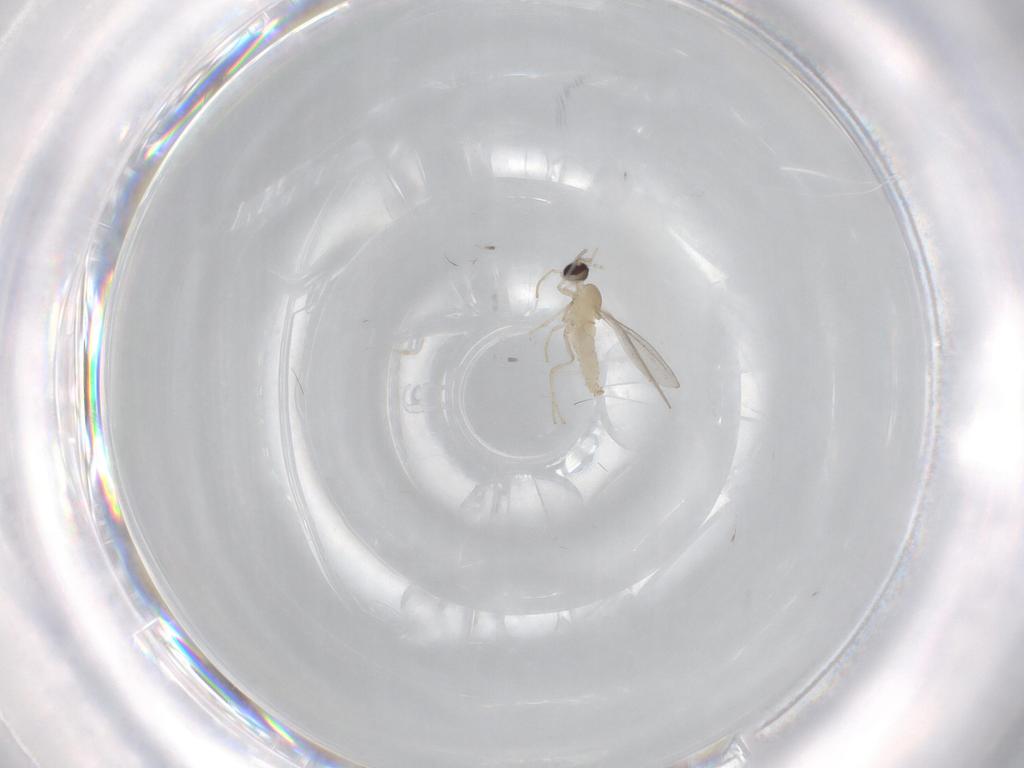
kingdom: Animalia
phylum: Arthropoda
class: Insecta
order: Diptera
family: Cecidomyiidae
